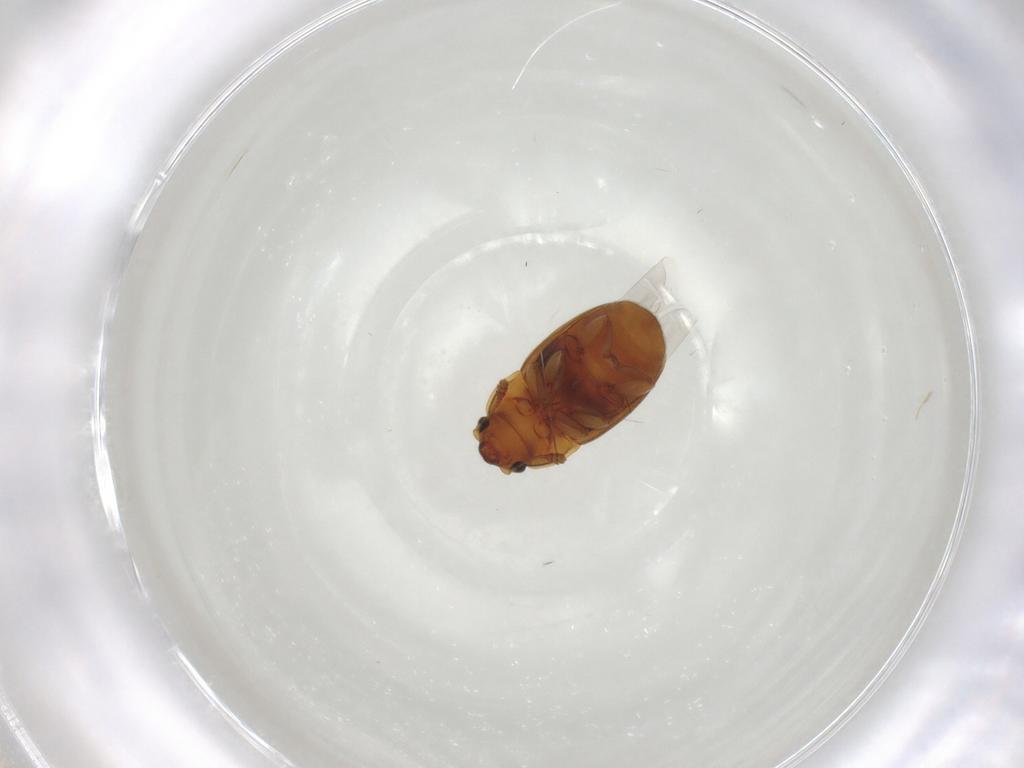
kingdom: Animalia
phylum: Arthropoda
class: Insecta
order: Coleoptera
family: Nitidulidae
